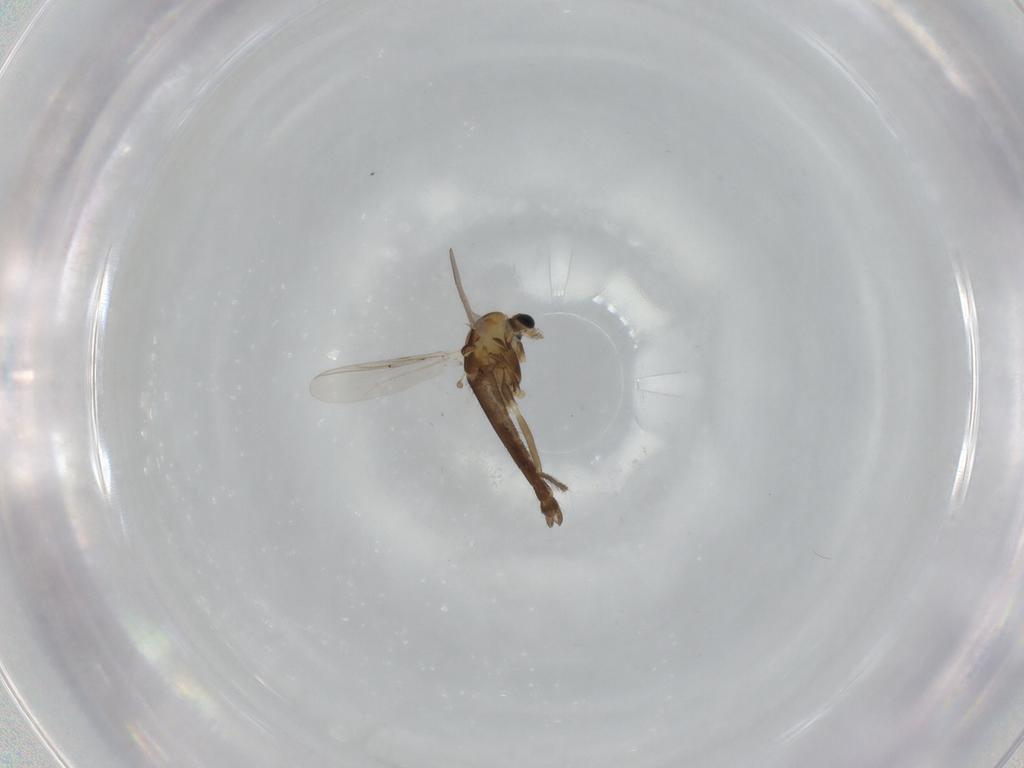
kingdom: Animalia
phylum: Arthropoda
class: Insecta
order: Diptera
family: Chironomidae
